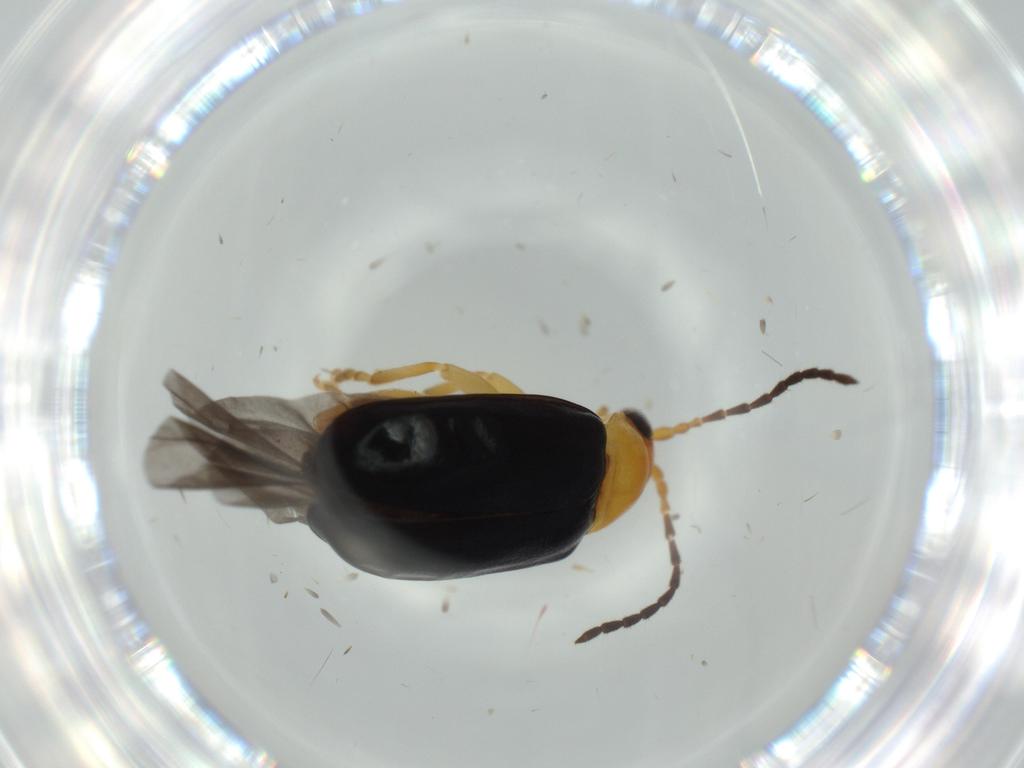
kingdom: Animalia
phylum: Arthropoda
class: Insecta
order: Coleoptera
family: Chrysomelidae
